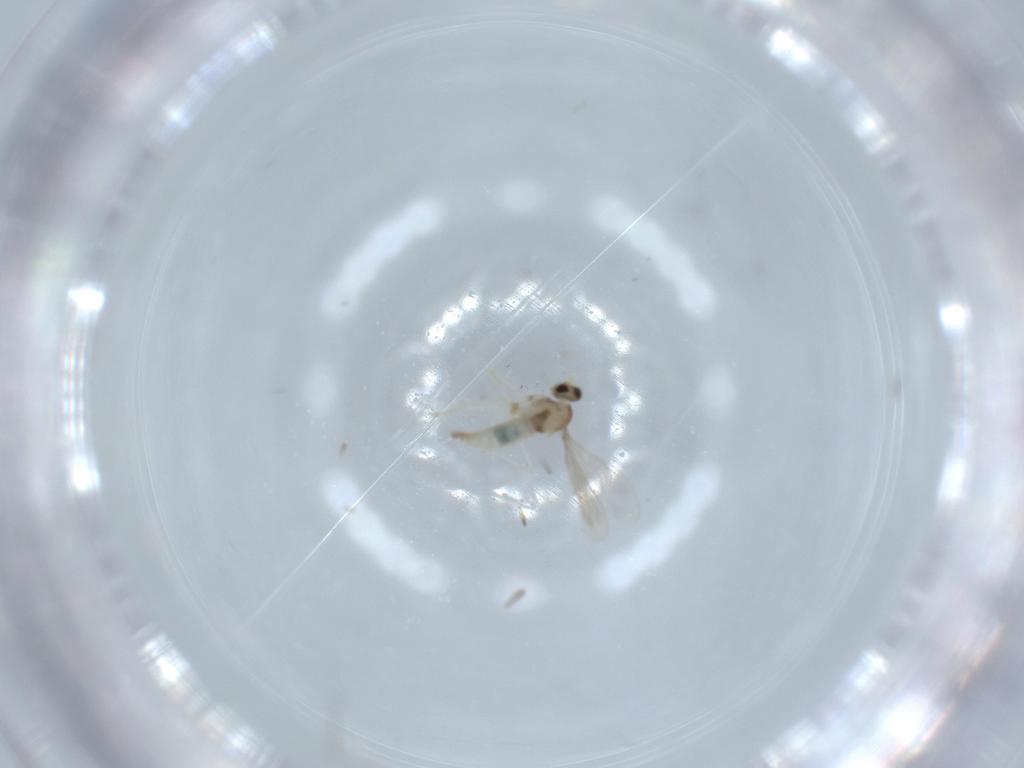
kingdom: Animalia
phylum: Arthropoda
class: Insecta
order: Diptera
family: Chironomidae
